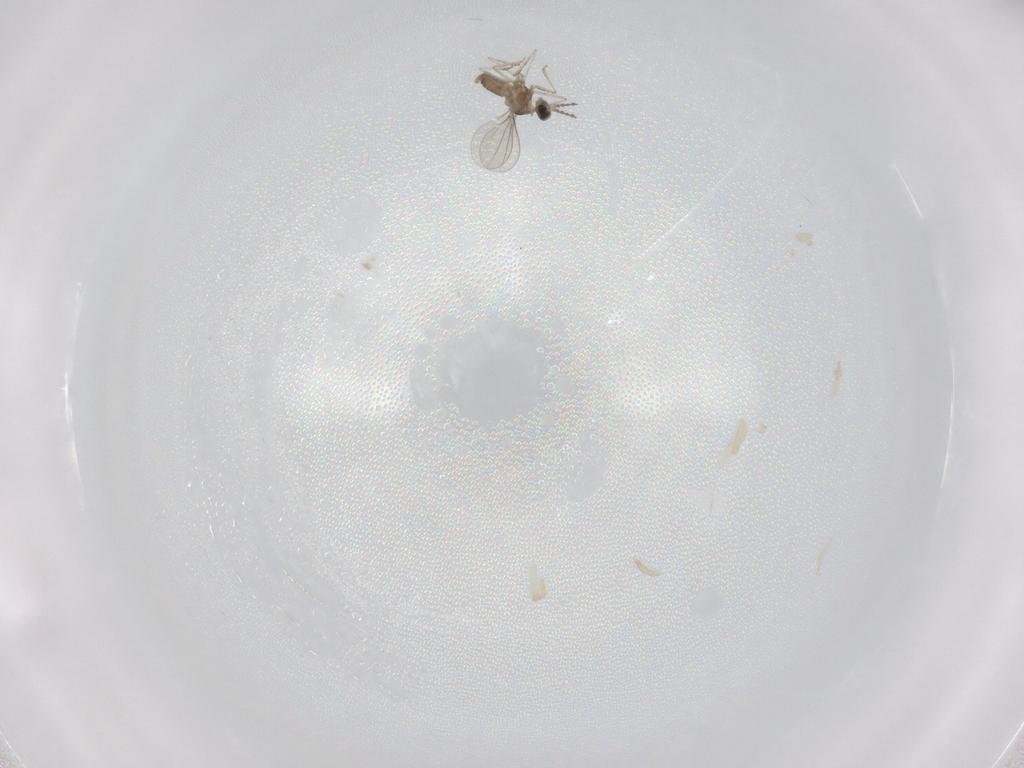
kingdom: Animalia
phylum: Arthropoda
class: Insecta
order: Diptera
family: Cecidomyiidae
